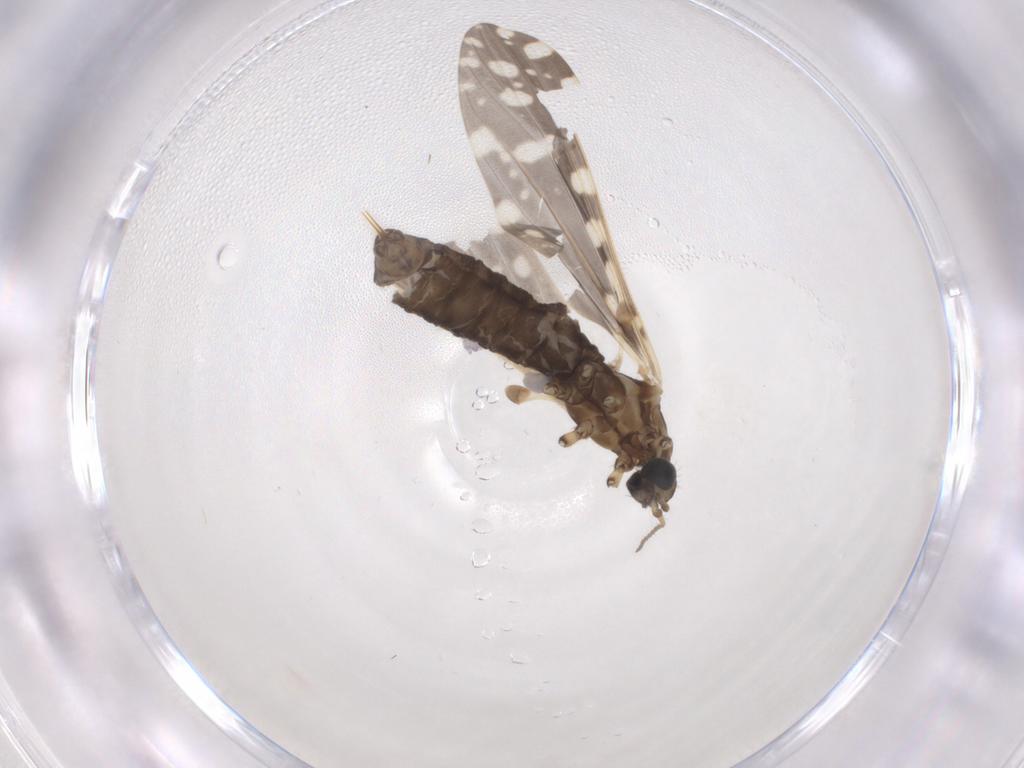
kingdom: Animalia
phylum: Arthropoda
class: Insecta
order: Diptera
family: Limoniidae
